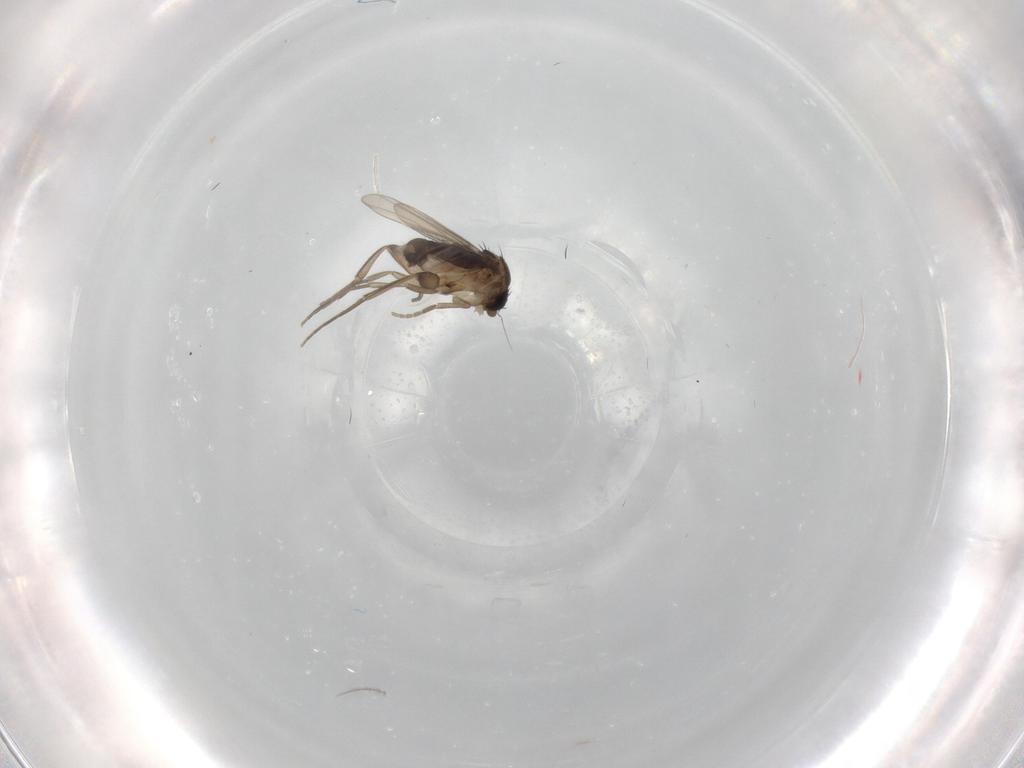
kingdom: Animalia
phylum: Arthropoda
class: Insecta
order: Diptera
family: Phoridae
